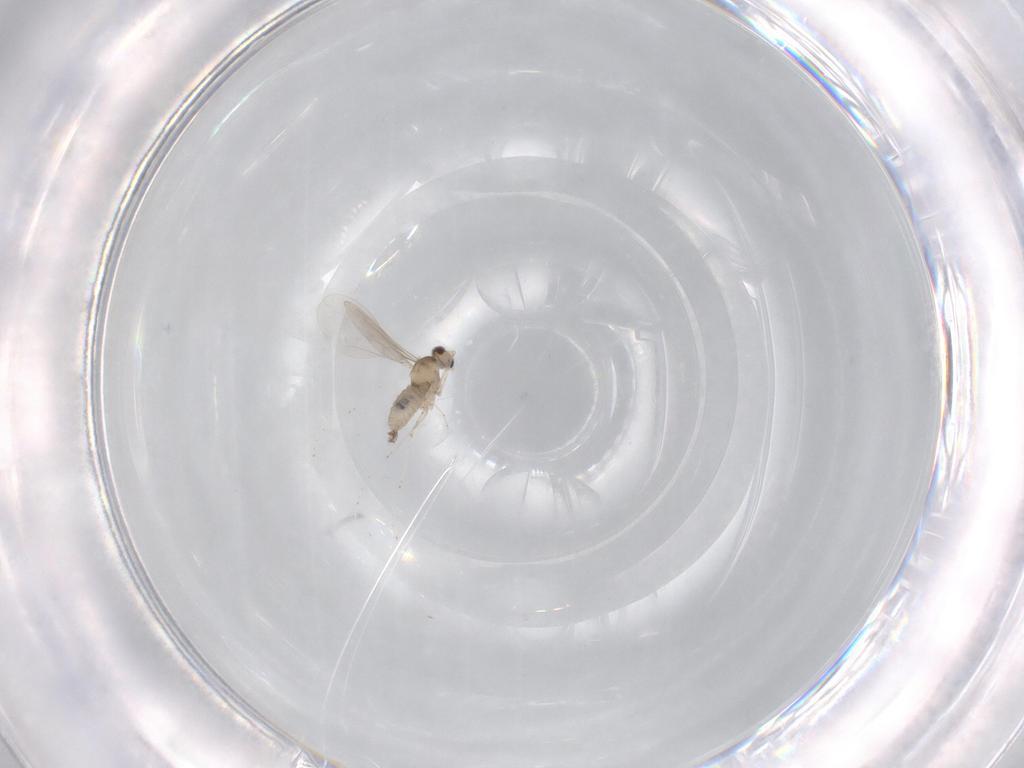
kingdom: Animalia
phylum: Arthropoda
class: Insecta
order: Diptera
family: Cecidomyiidae
